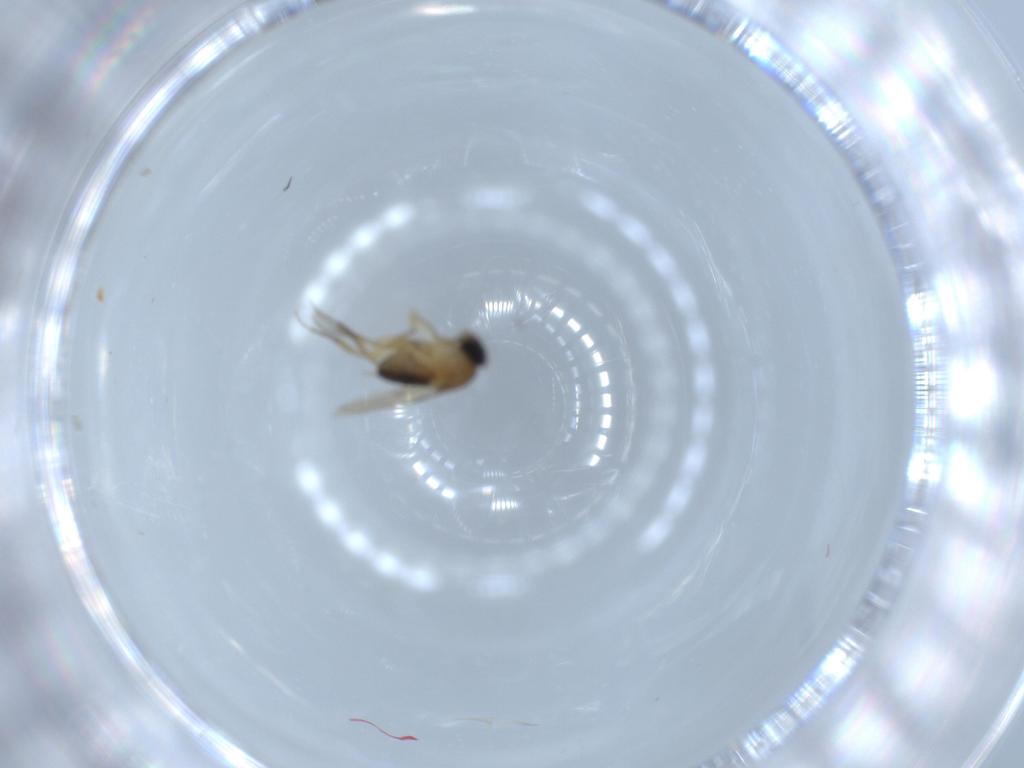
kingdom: Animalia
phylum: Arthropoda
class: Insecta
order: Diptera
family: Phoridae
